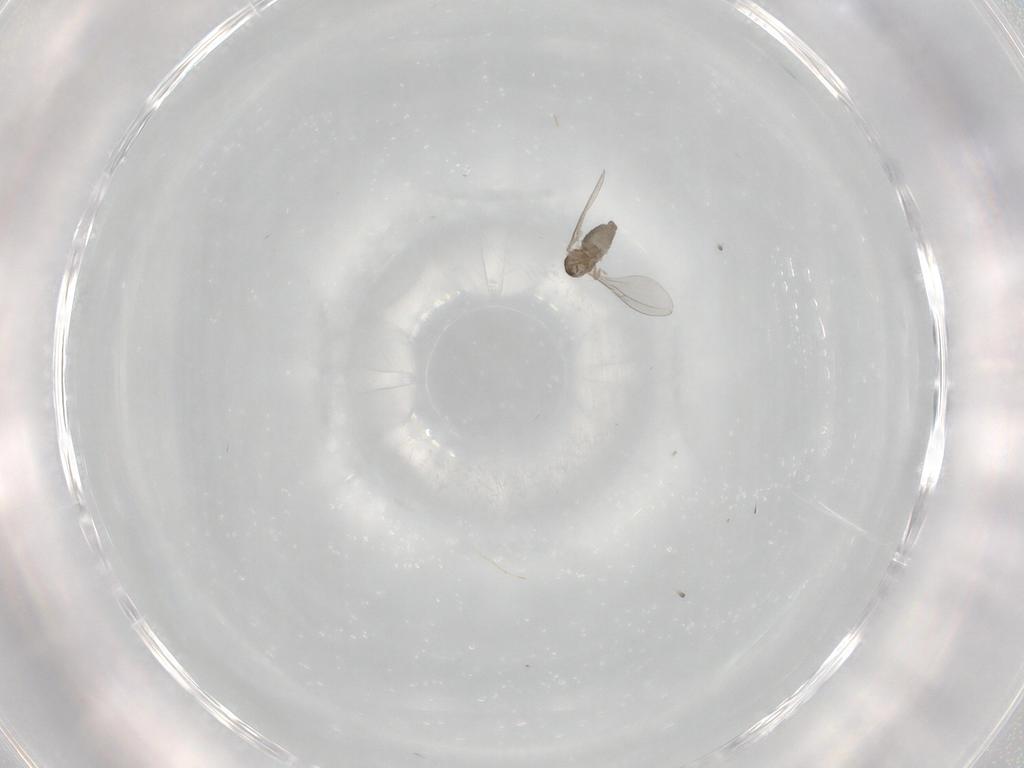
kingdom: Animalia
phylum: Arthropoda
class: Insecta
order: Diptera
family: Cecidomyiidae
